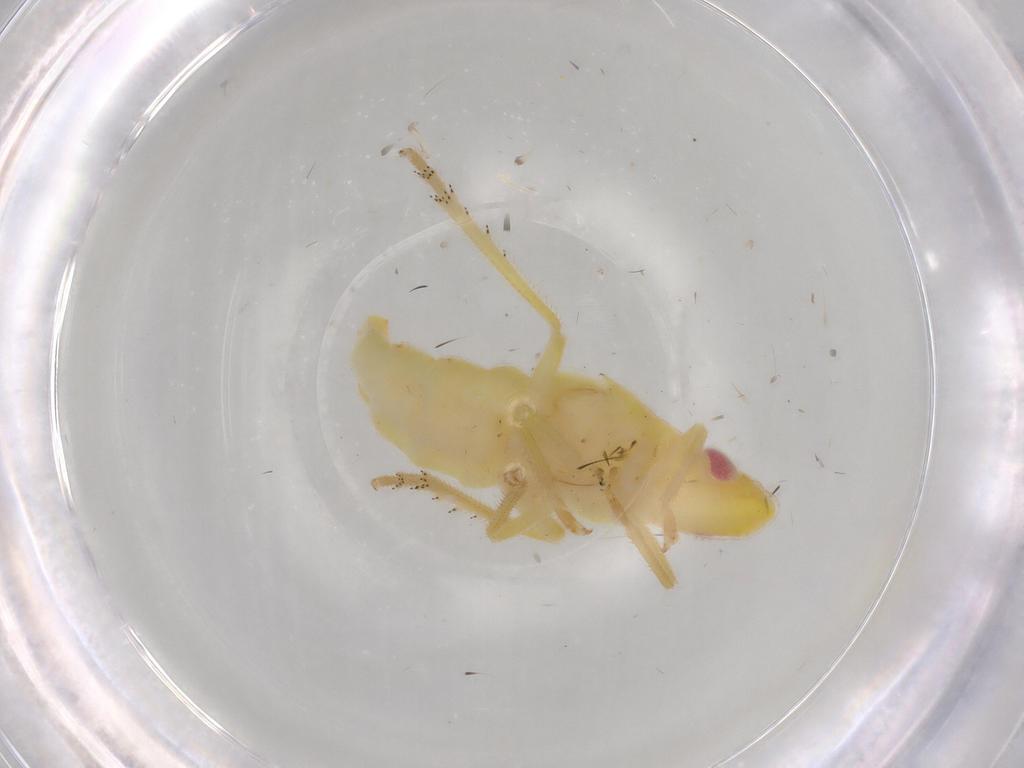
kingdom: Animalia
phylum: Arthropoda
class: Insecta
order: Hemiptera
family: Tropiduchidae
